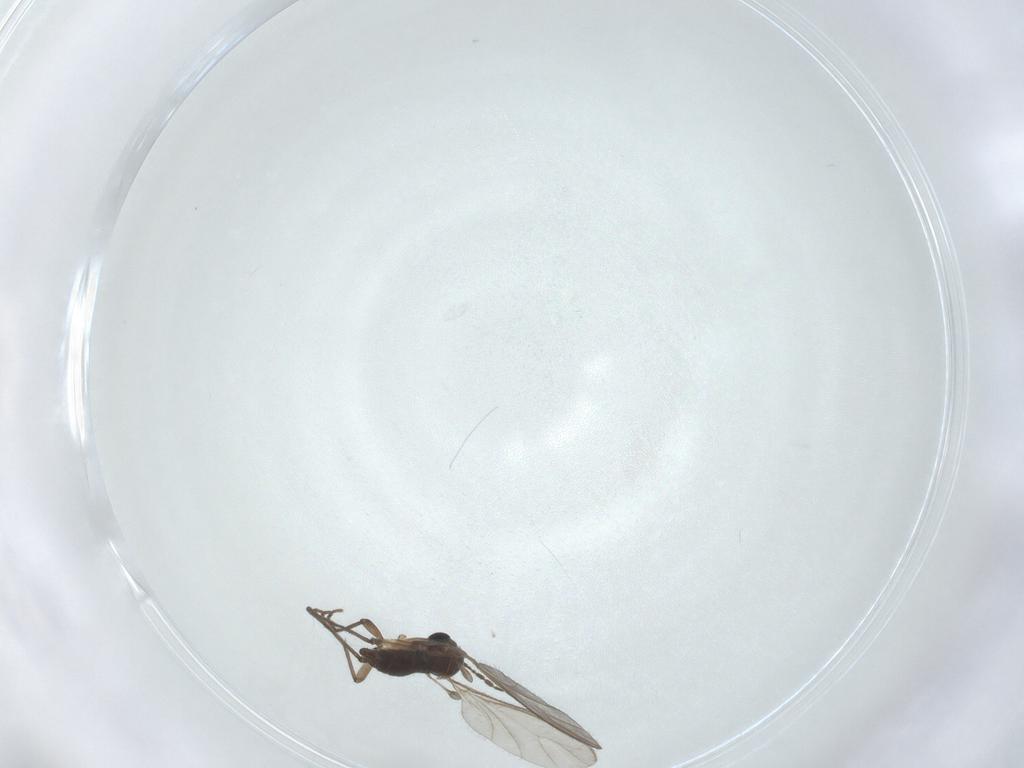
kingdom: Animalia
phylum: Arthropoda
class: Insecta
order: Diptera
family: Sciaridae
